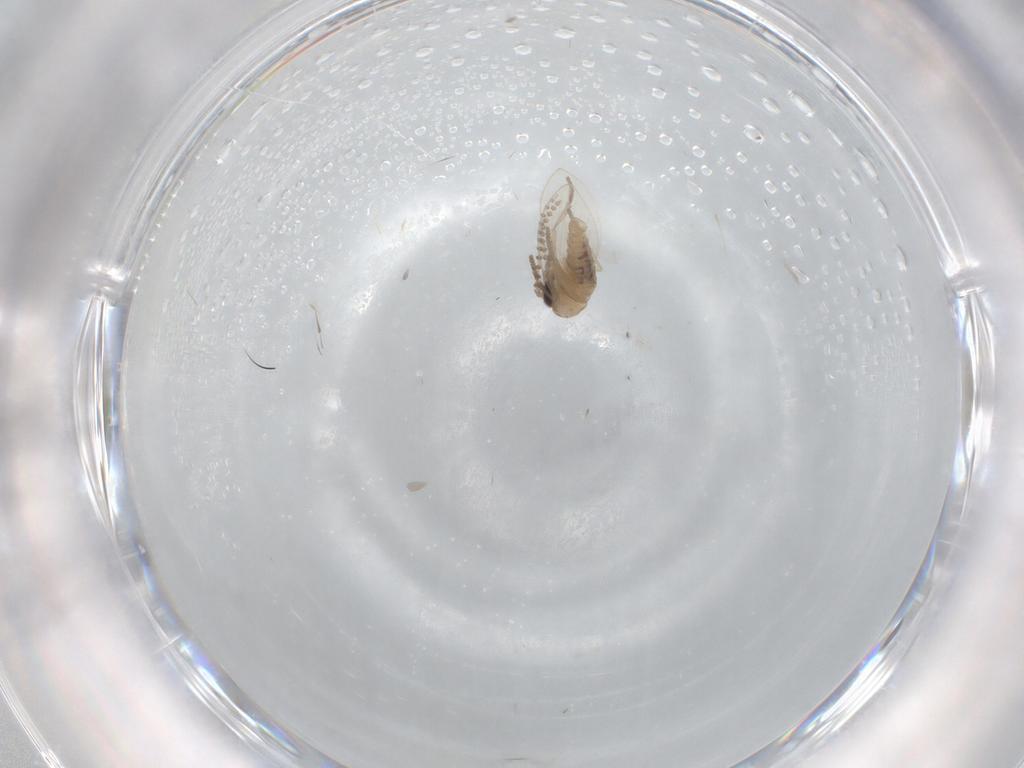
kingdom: Animalia
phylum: Arthropoda
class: Insecta
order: Diptera
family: Psychodidae
